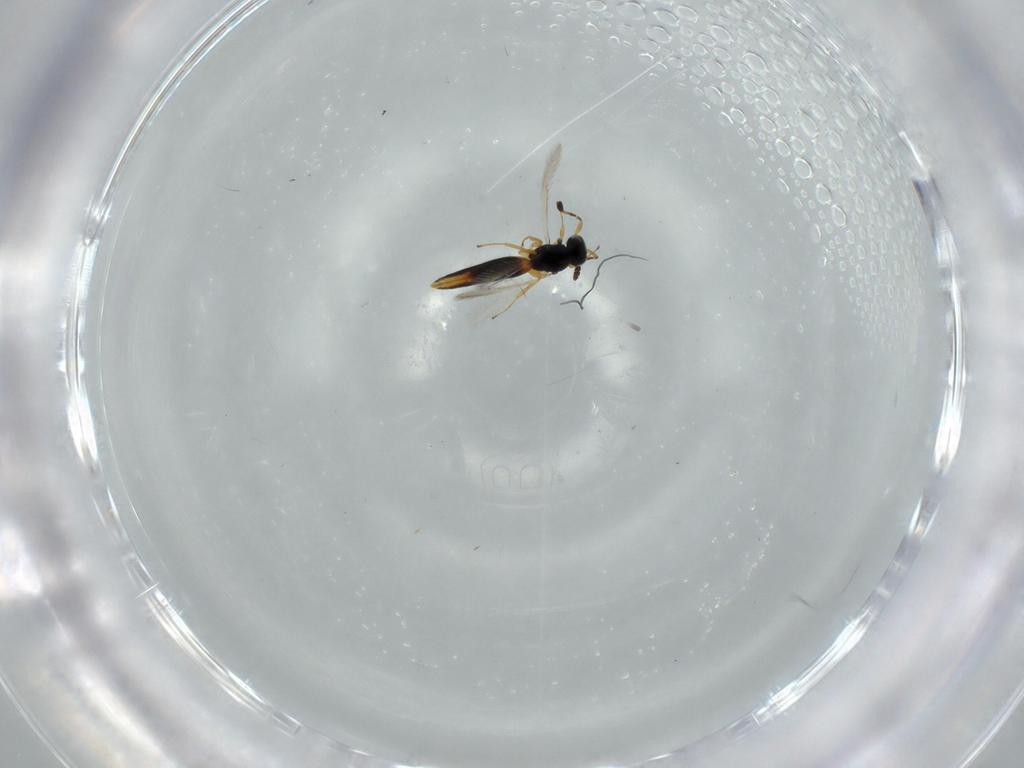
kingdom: Animalia
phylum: Arthropoda
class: Insecta
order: Hymenoptera
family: Scelionidae
